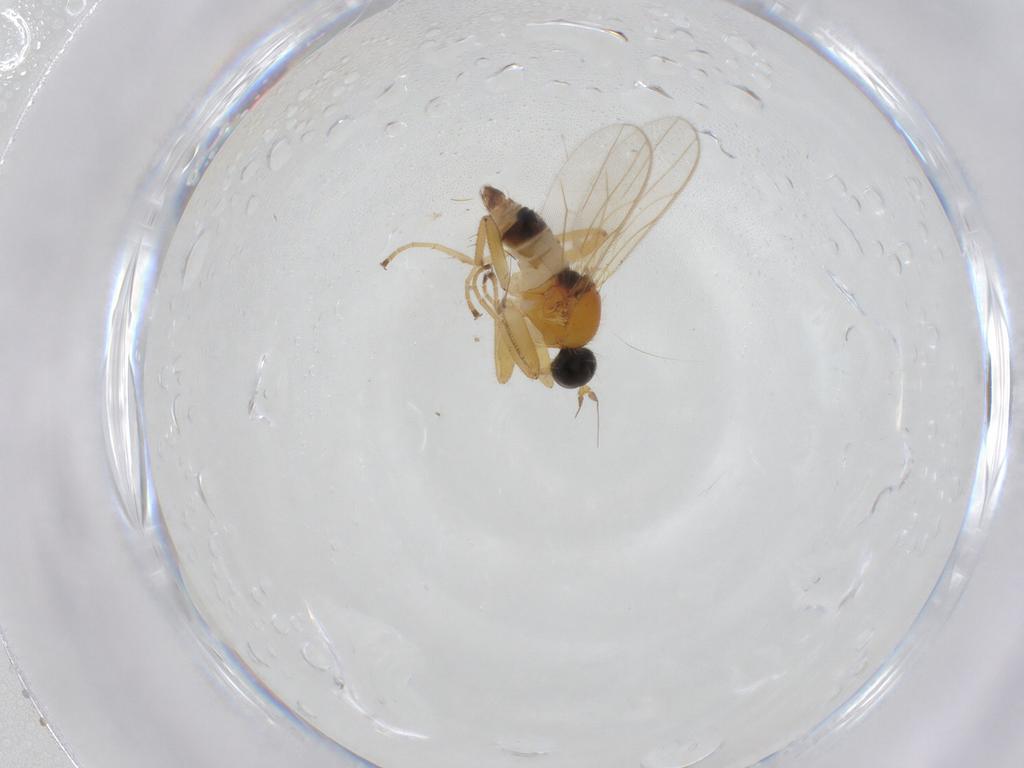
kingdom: Animalia
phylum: Arthropoda
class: Insecta
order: Diptera
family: Hybotidae
